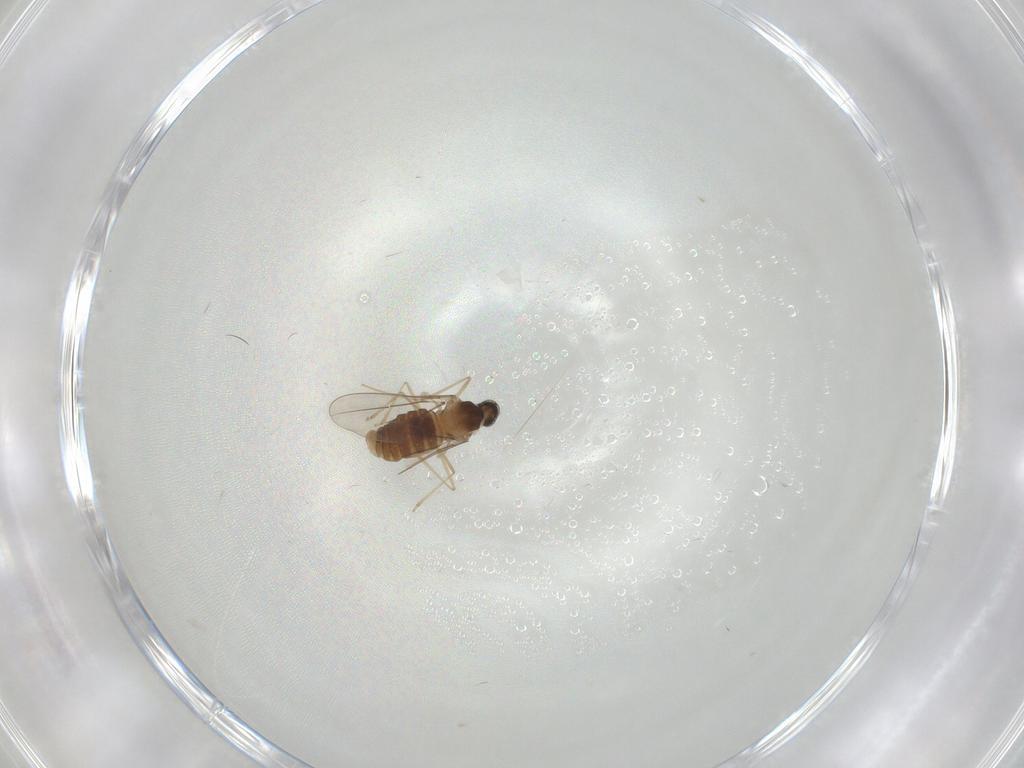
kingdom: Animalia
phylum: Arthropoda
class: Insecta
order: Diptera
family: Cecidomyiidae
